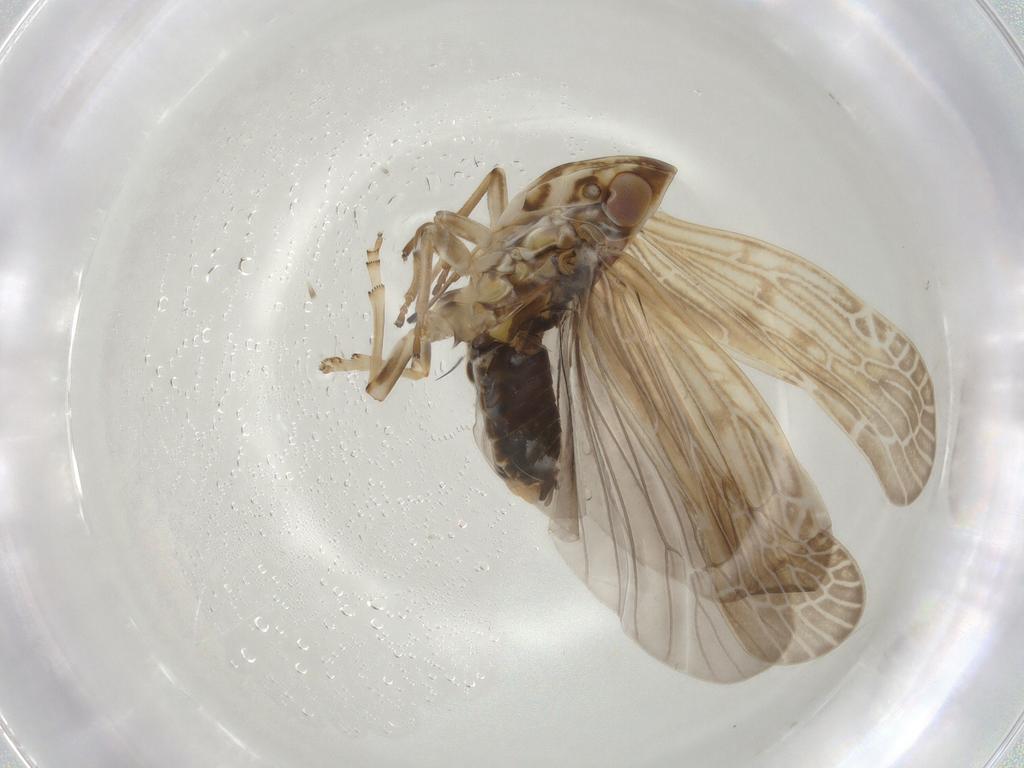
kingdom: Animalia
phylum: Arthropoda
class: Insecta
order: Hemiptera
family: Achilidae
